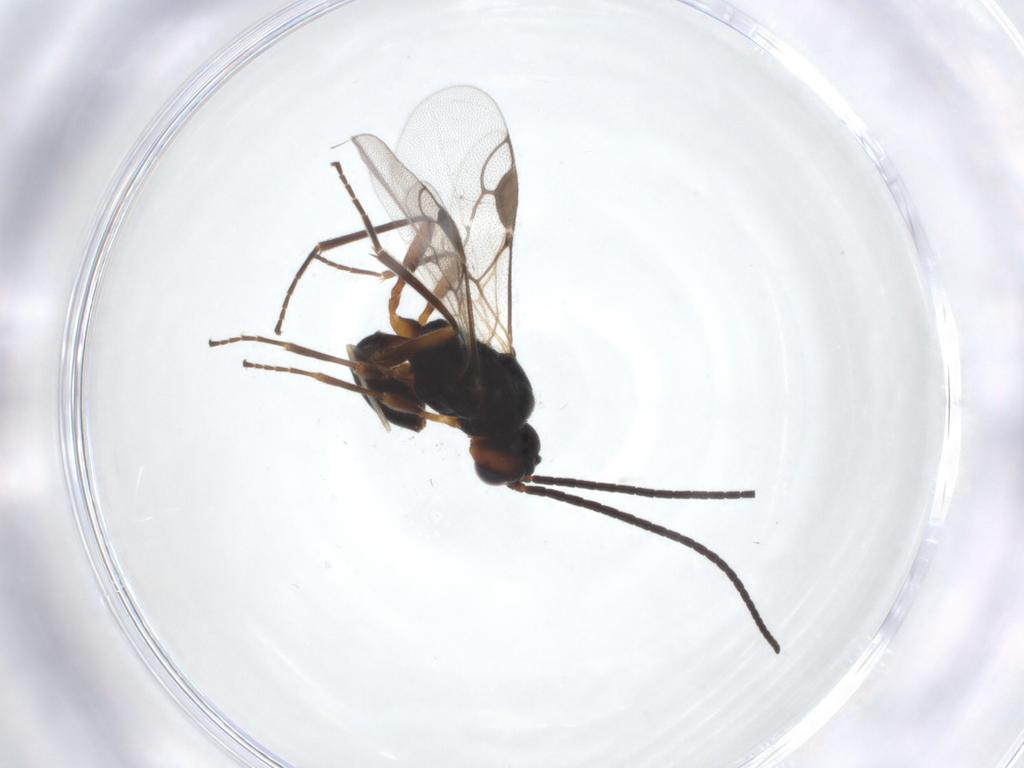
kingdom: Animalia
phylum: Arthropoda
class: Insecta
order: Hymenoptera
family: Braconidae
